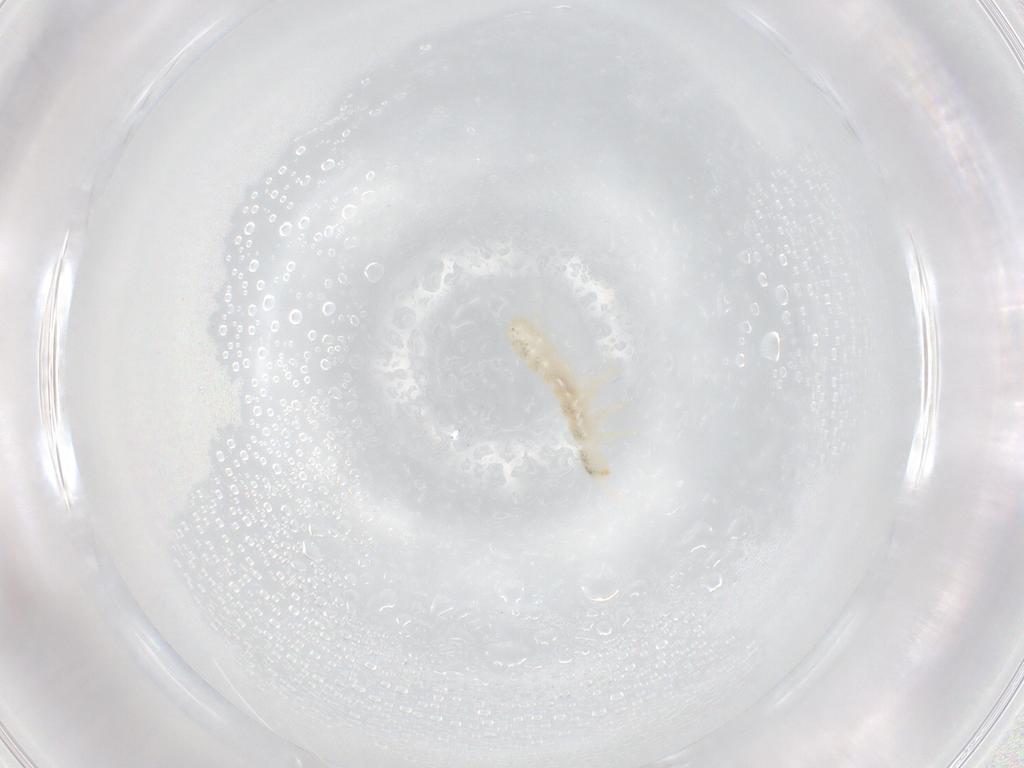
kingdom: Animalia
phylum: Arthropoda
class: Collembola
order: Entomobryomorpha
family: Isotomidae
